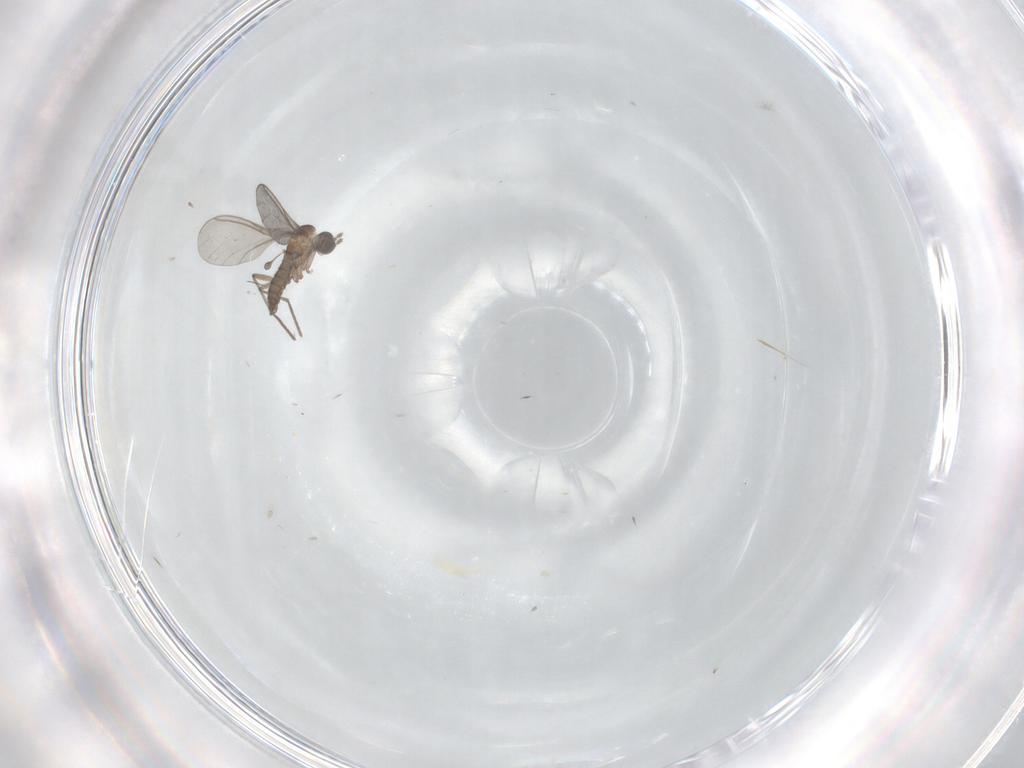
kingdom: Animalia
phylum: Arthropoda
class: Insecta
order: Diptera
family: Sciaridae
